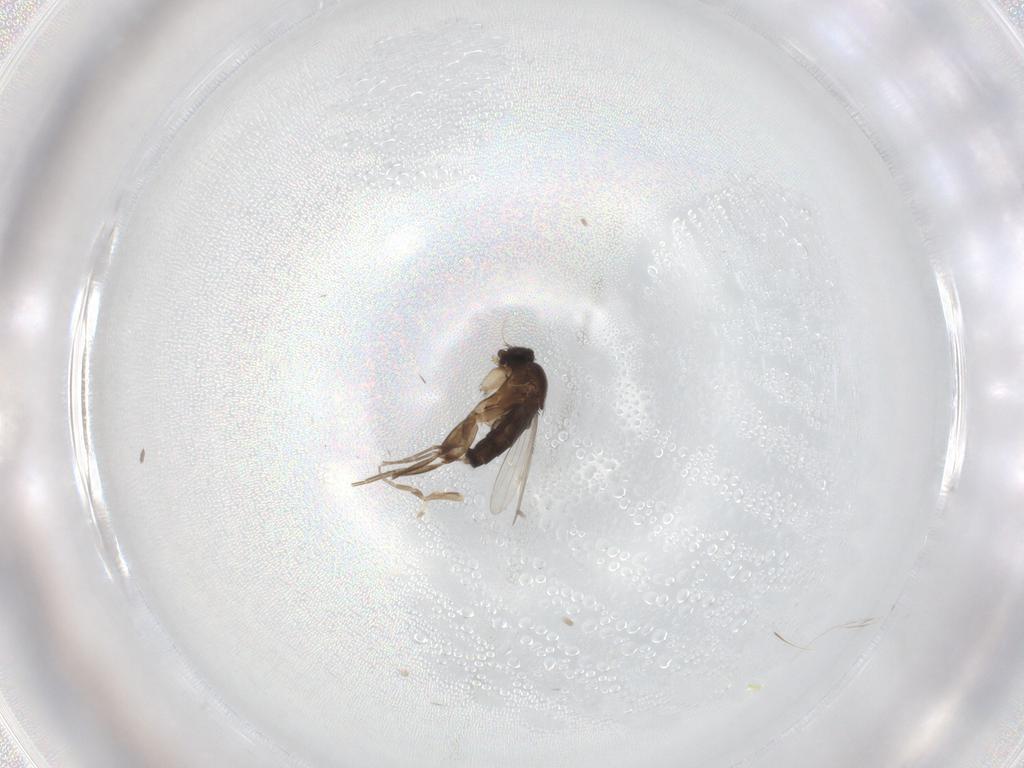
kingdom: Animalia
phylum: Arthropoda
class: Insecta
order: Diptera
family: Phoridae
